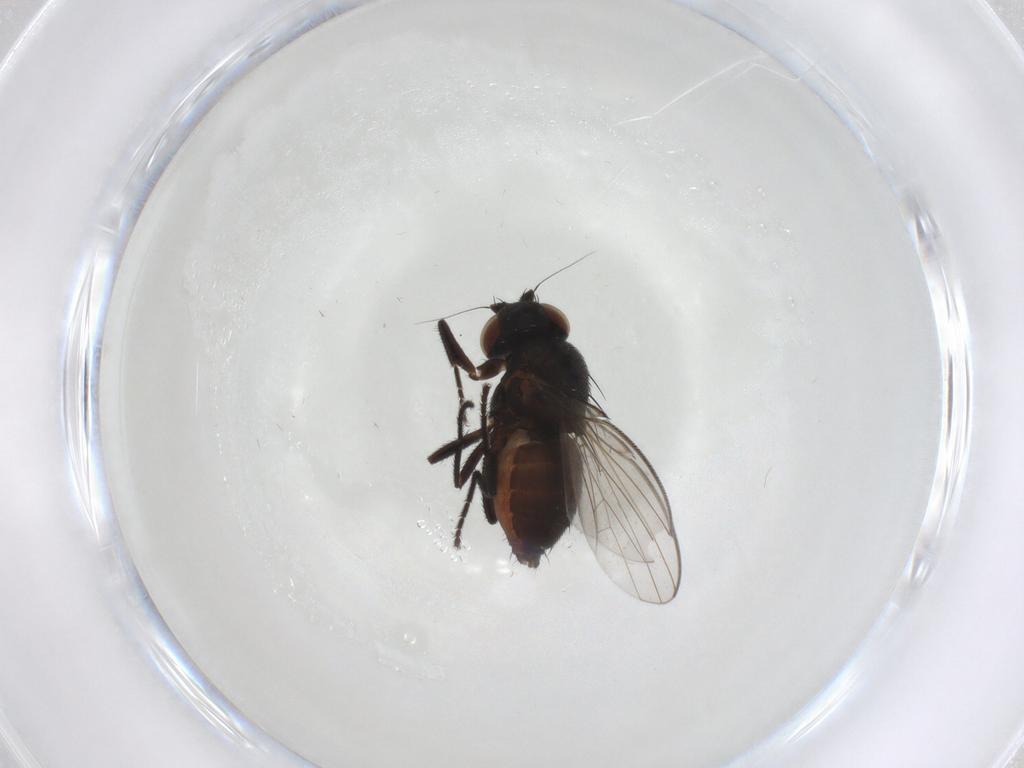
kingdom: Animalia
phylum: Arthropoda
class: Insecta
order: Diptera
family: Milichiidae
